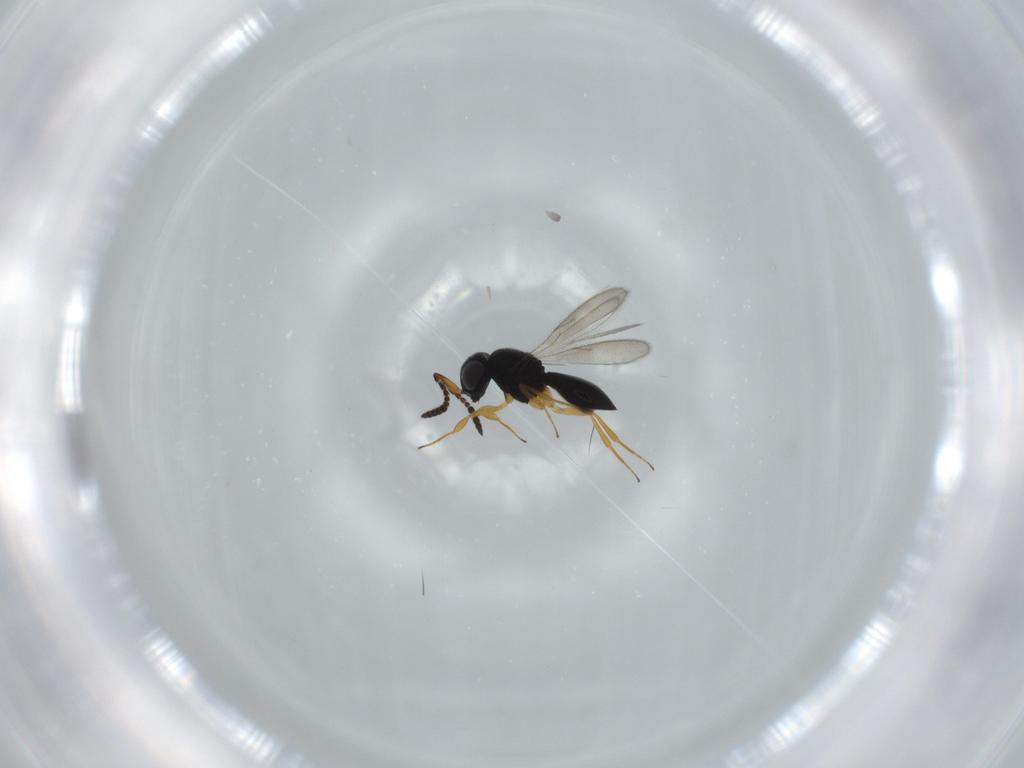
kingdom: Animalia
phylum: Arthropoda
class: Insecta
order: Hymenoptera
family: Scelionidae
